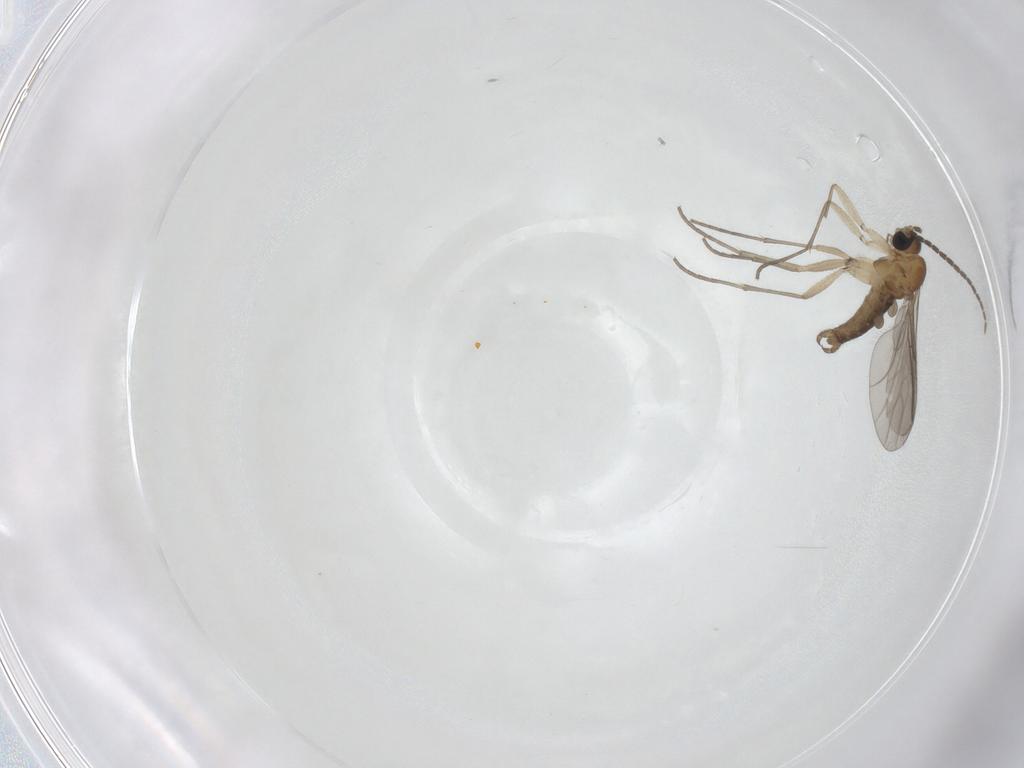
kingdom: Animalia
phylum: Arthropoda
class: Insecta
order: Diptera
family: Sciaridae
